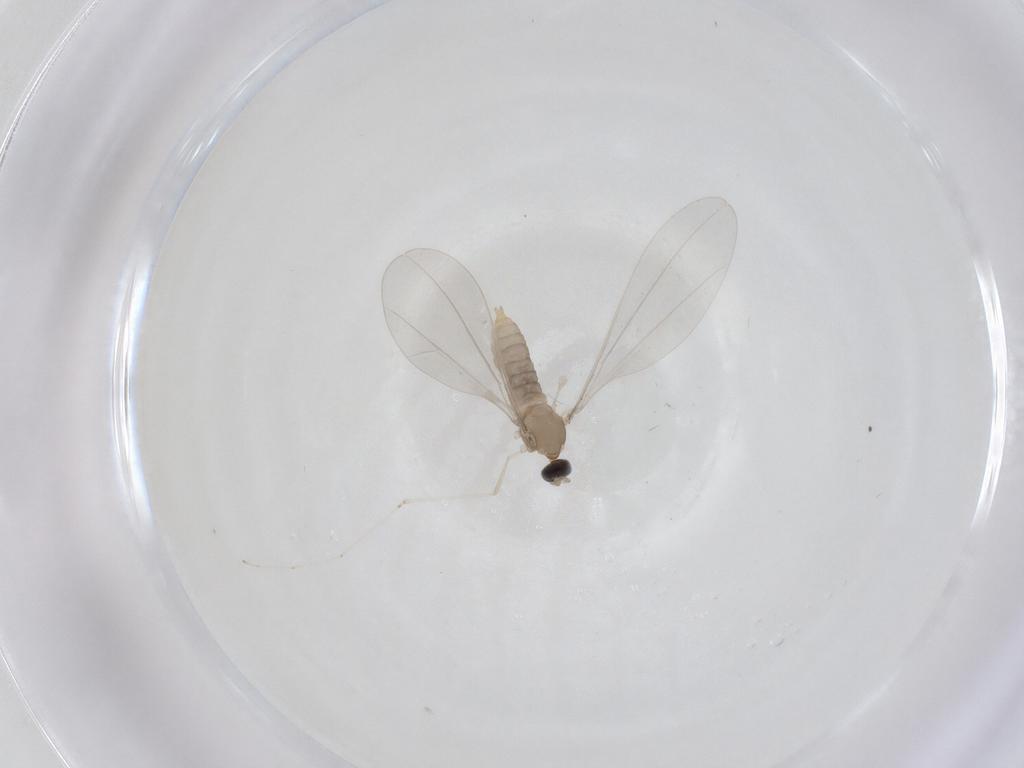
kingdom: Animalia
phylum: Arthropoda
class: Insecta
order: Diptera
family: Cecidomyiidae
